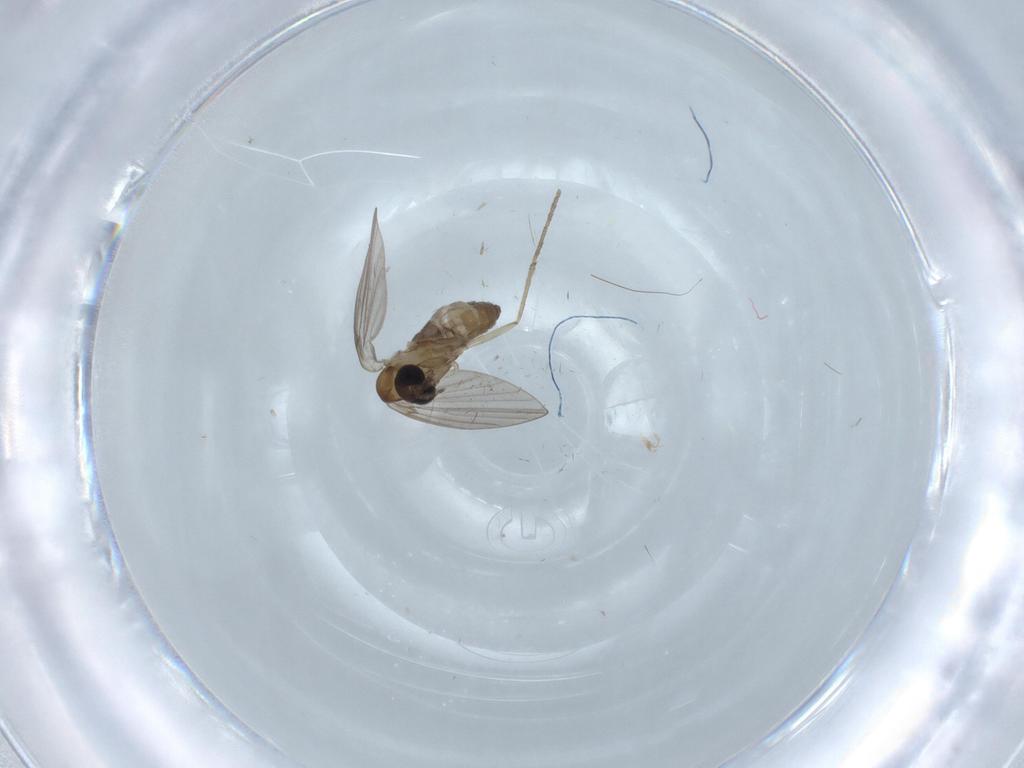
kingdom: Animalia
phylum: Arthropoda
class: Insecta
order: Diptera
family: Cecidomyiidae
